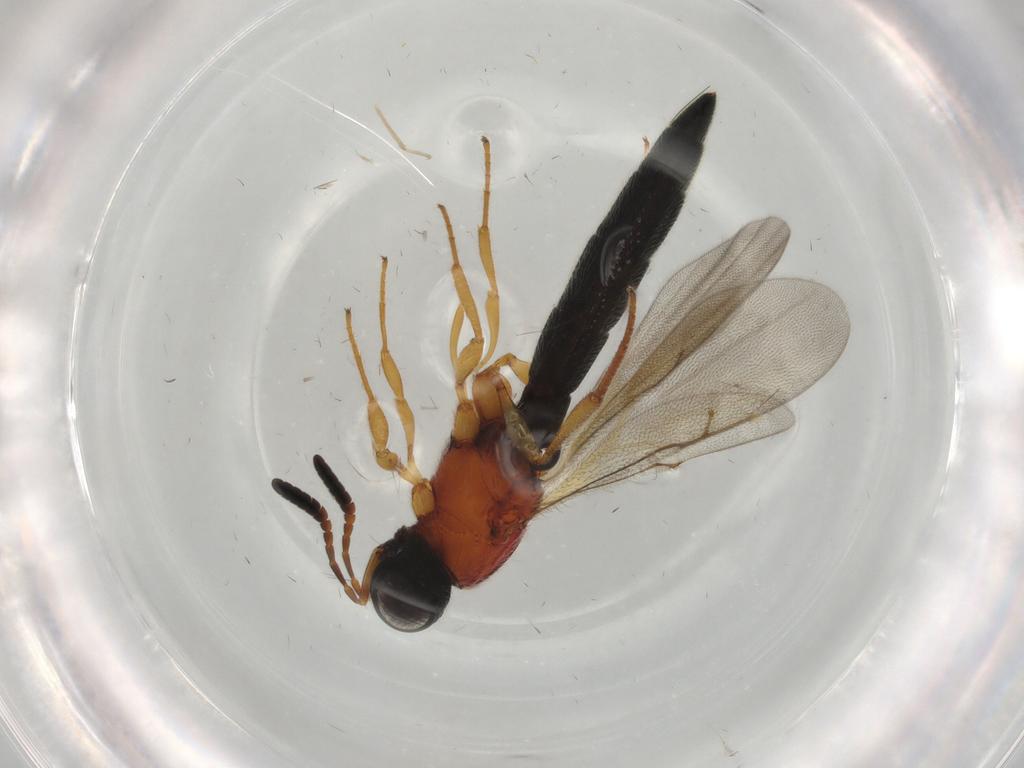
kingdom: Animalia
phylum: Arthropoda
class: Insecta
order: Hymenoptera
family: Scelionidae
